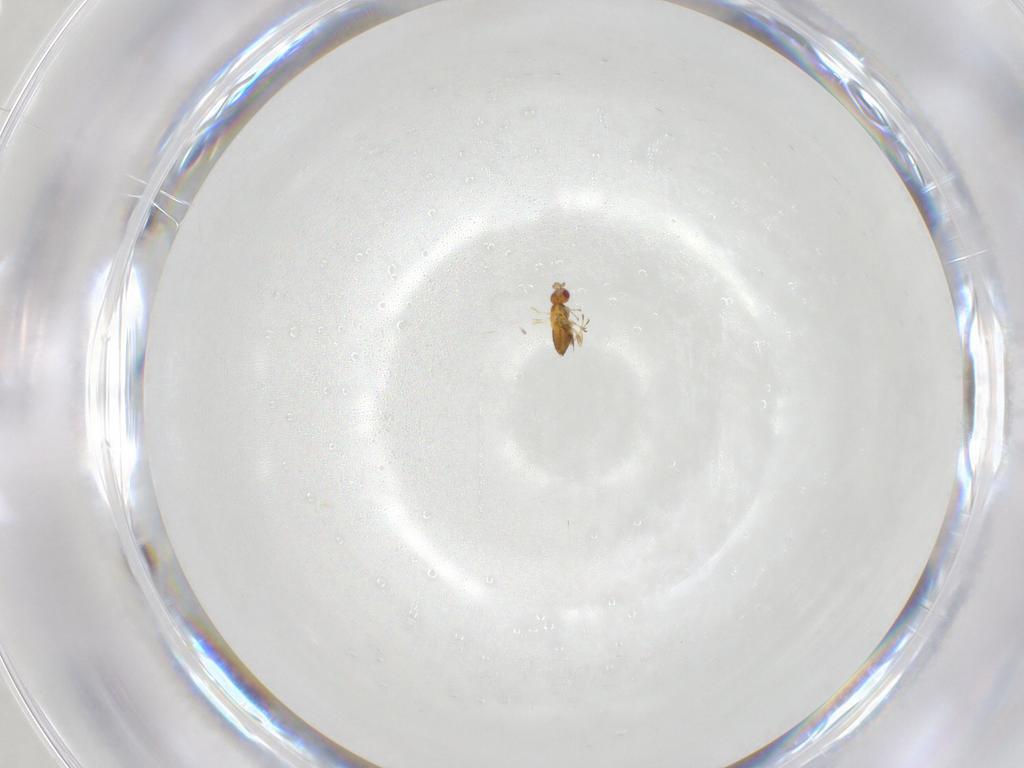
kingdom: Animalia
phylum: Arthropoda
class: Insecta
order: Hymenoptera
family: Trichogrammatidae
